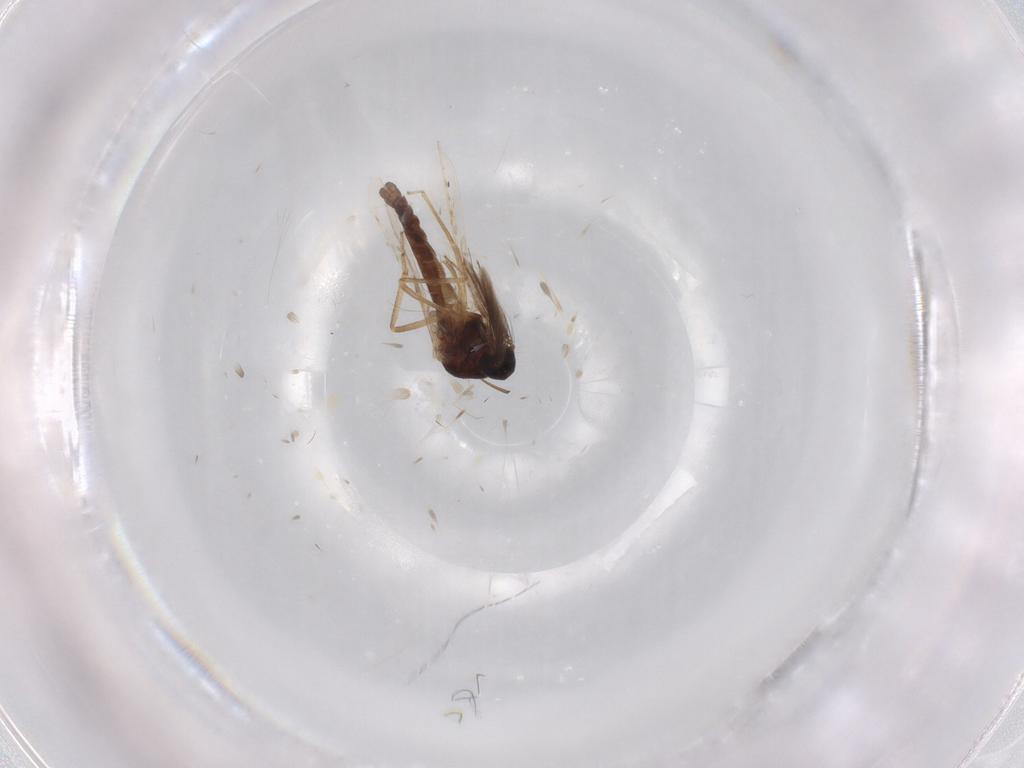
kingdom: Animalia
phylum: Arthropoda
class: Insecta
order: Diptera
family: Ceratopogonidae
